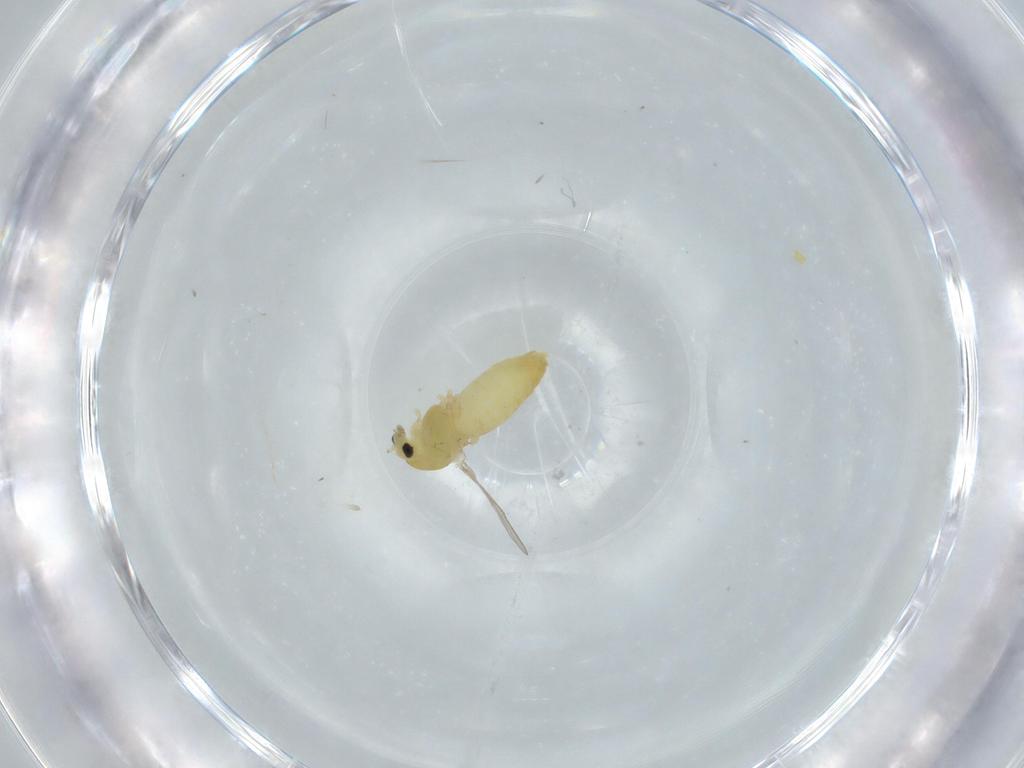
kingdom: Animalia
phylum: Arthropoda
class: Insecta
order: Diptera
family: Chironomidae
